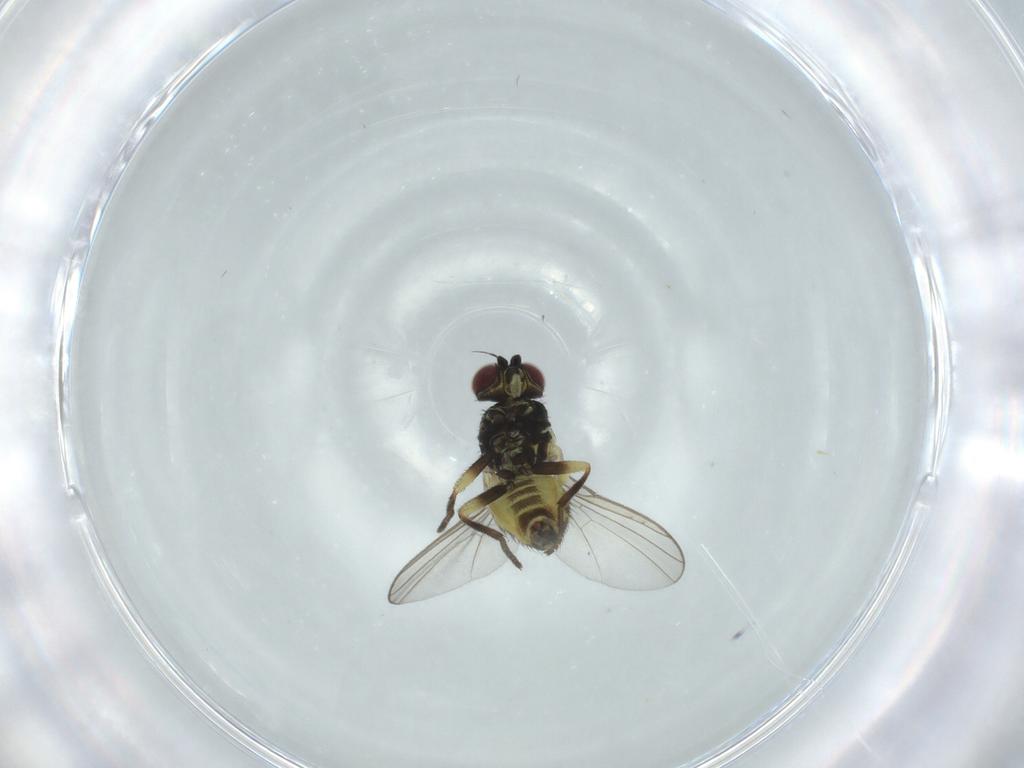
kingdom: Animalia
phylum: Arthropoda
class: Insecta
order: Diptera
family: Agromyzidae
